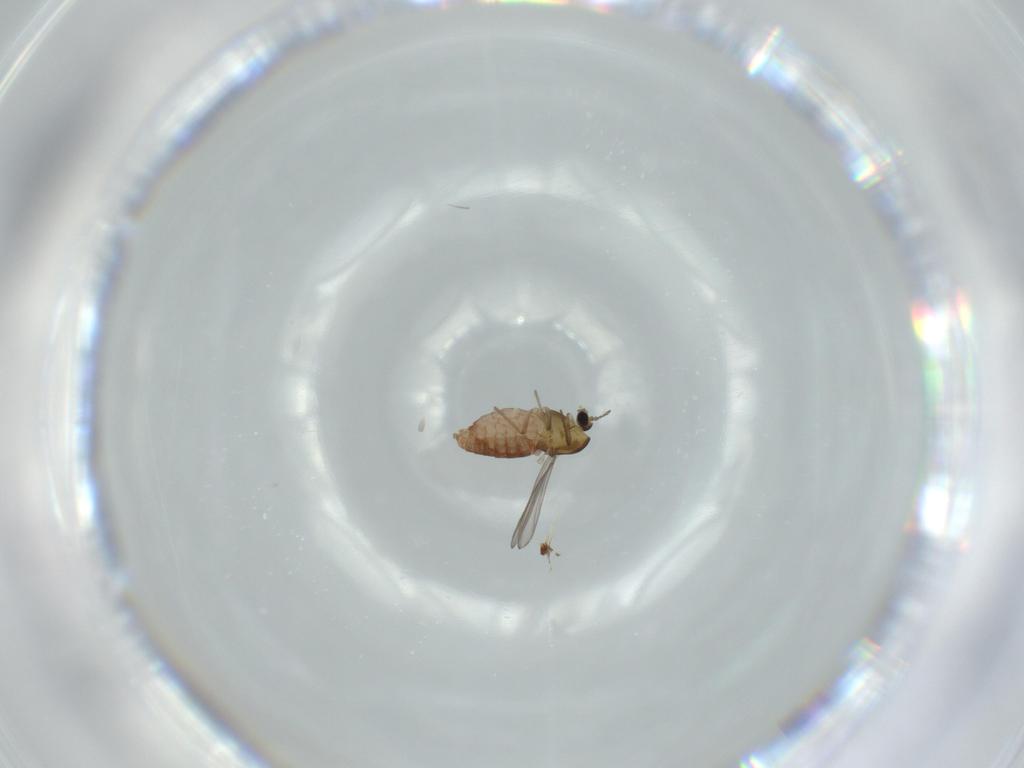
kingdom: Animalia
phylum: Arthropoda
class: Insecta
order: Diptera
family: Chironomidae
